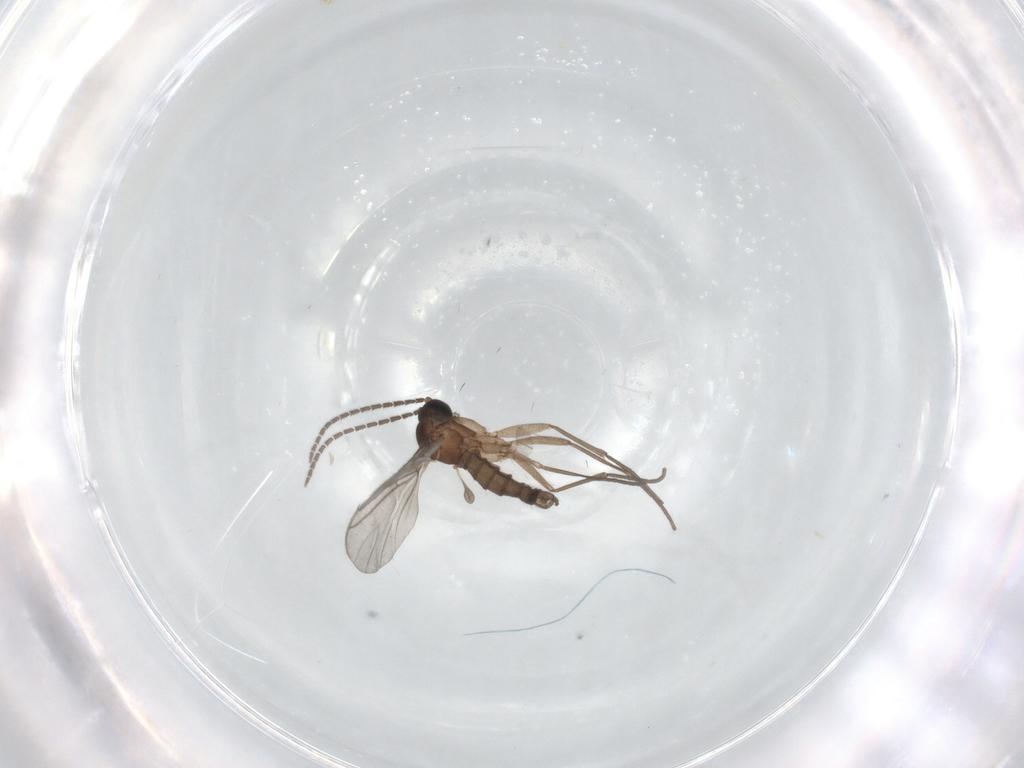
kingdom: Animalia
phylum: Arthropoda
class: Insecta
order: Diptera
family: Sciaridae
